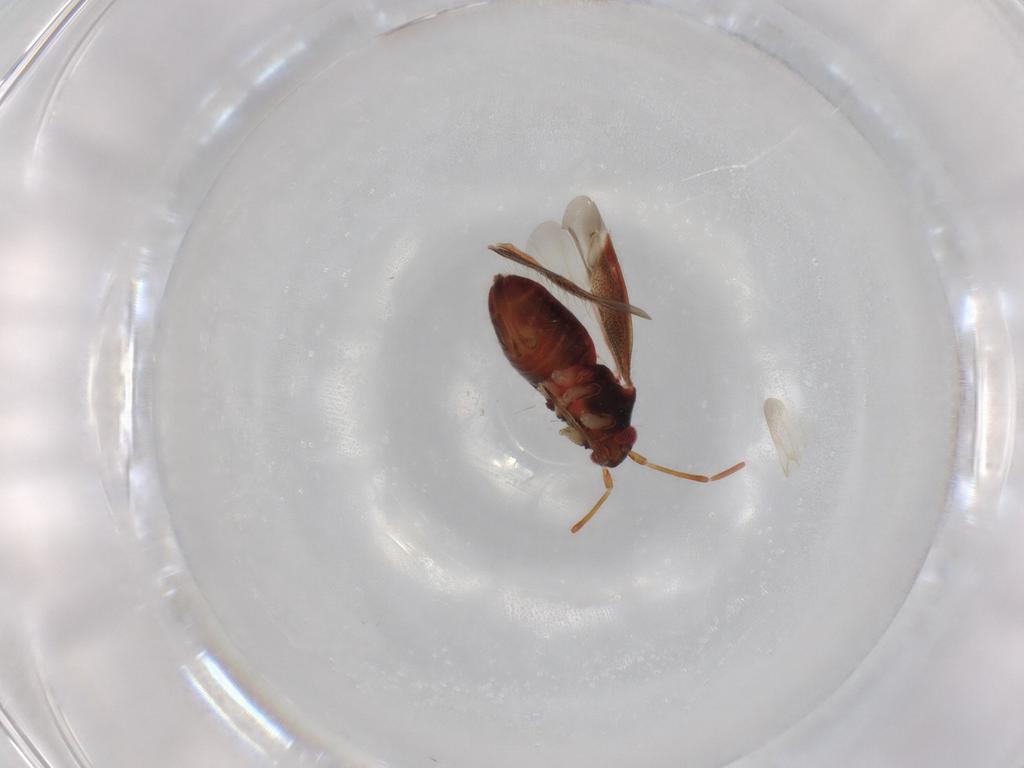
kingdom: Animalia
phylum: Arthropoda
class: Insecta
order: Hemiptera
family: Miridae
